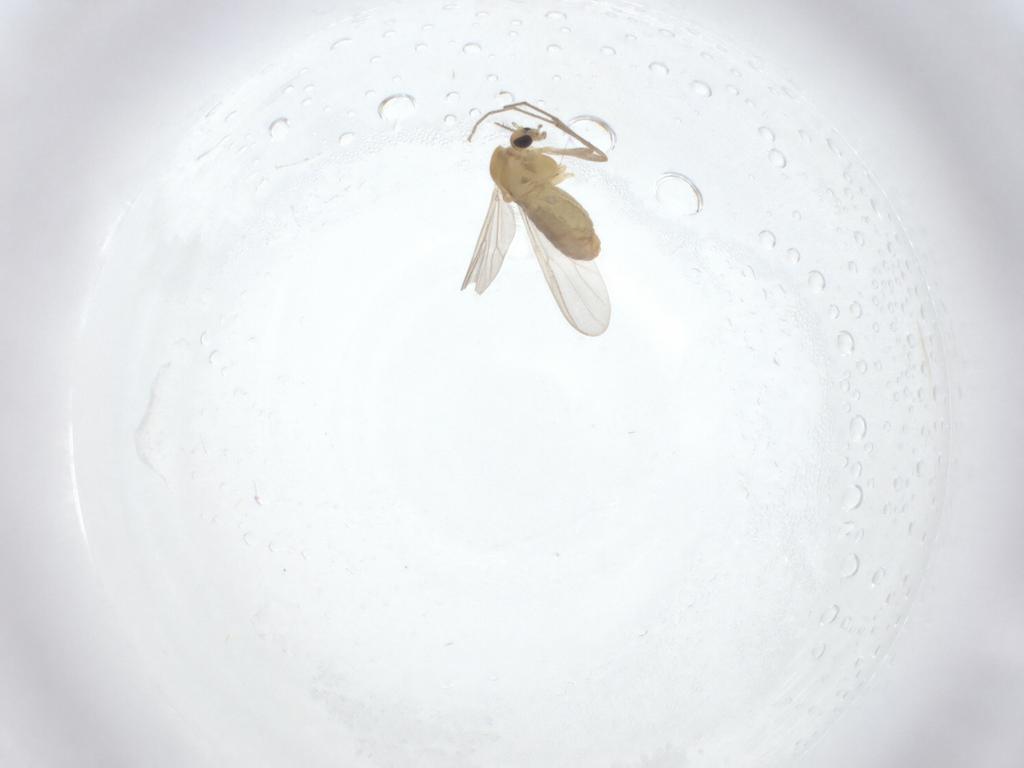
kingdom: Animalia
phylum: Arthropoda
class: Insecta
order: Diptera
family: Chironomidae
